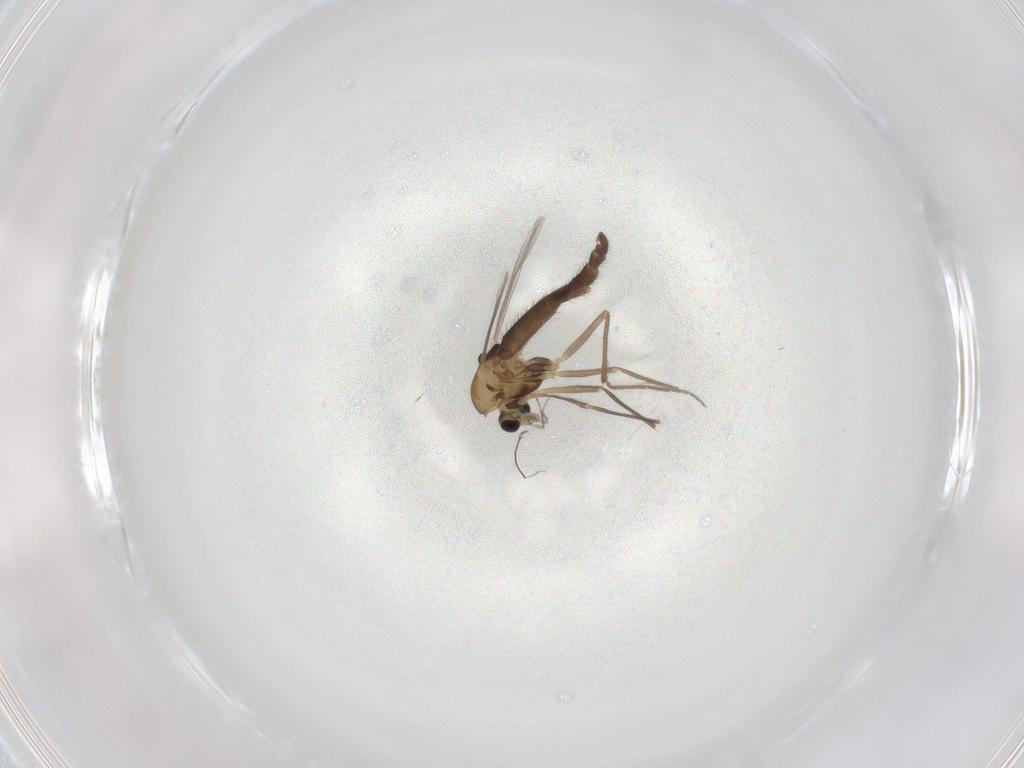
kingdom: Animalia
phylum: Arthropoda
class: Insecta
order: Diptera
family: Chironomidae
